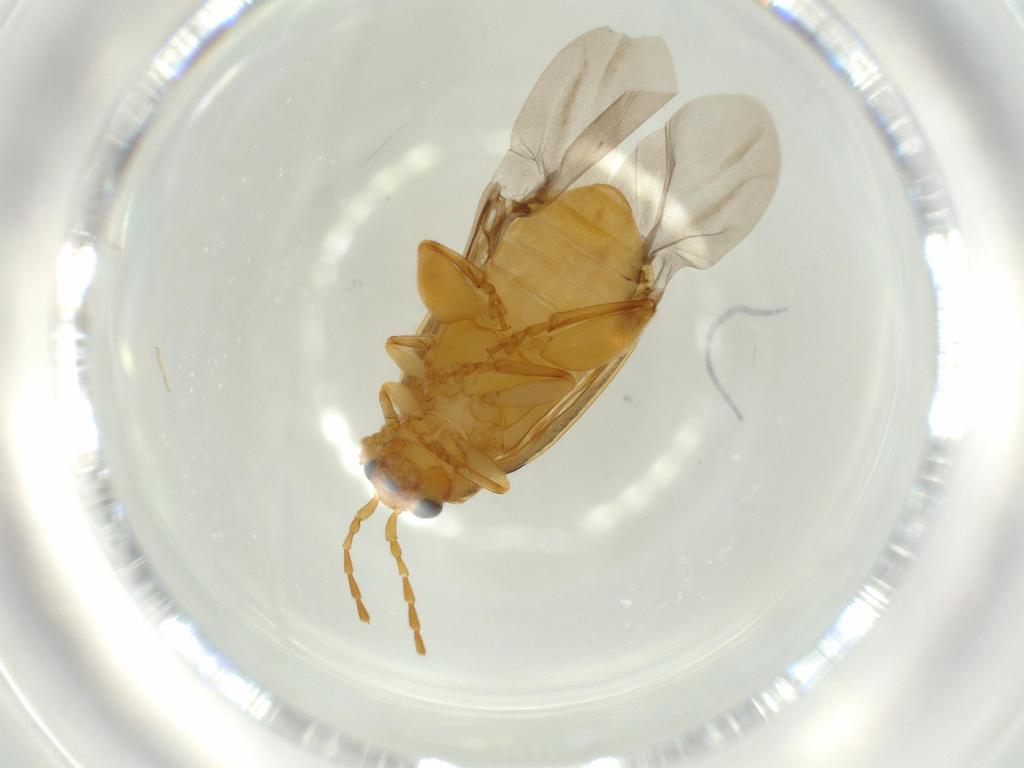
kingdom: Animalia
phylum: Arthropoda
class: Insecta
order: Coleoptera
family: Chrysomelidae
